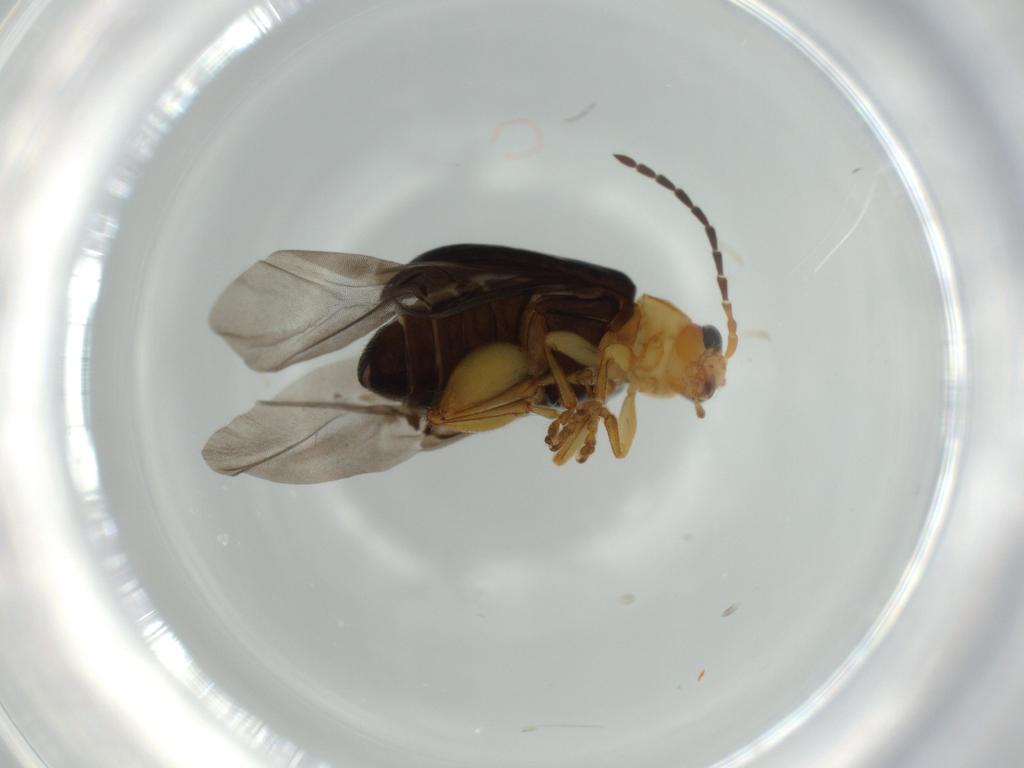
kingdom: Animalia
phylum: Arthropoda
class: Insecta
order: Coleoptera
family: Chrysomelidae
